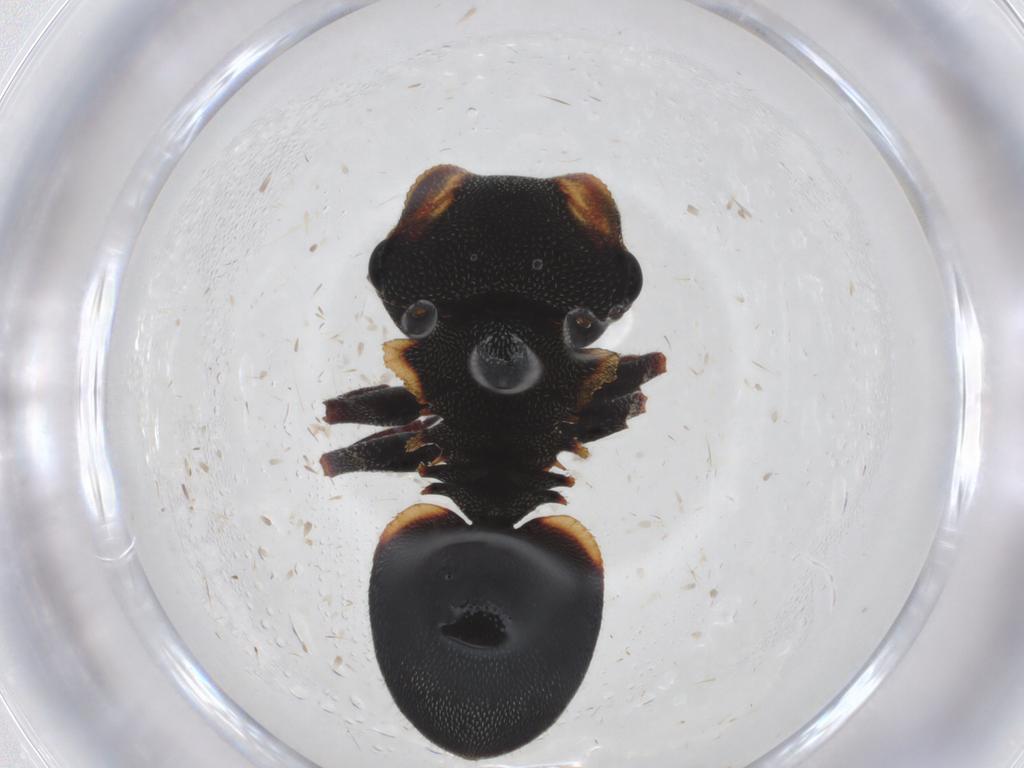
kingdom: Animalia
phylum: Arthropoda
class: Insecta
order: Hymenoptera
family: Formicidae
